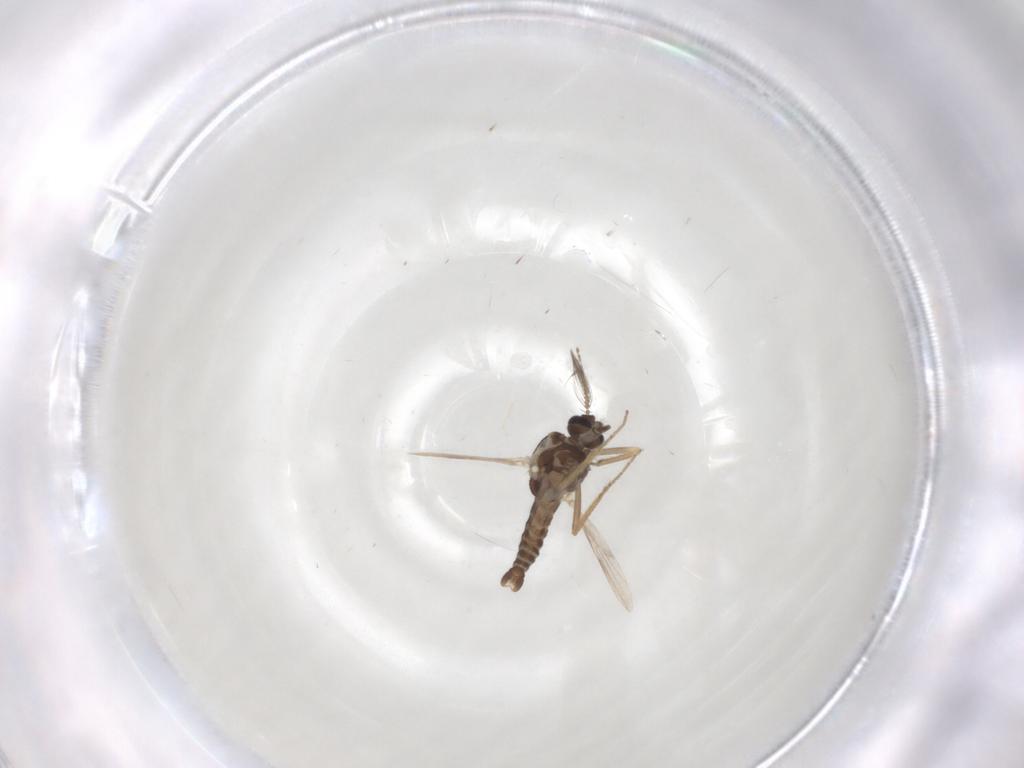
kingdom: Animalia
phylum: Arthropoda
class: Insecta
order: Diptera
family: Ceratopogonidae
